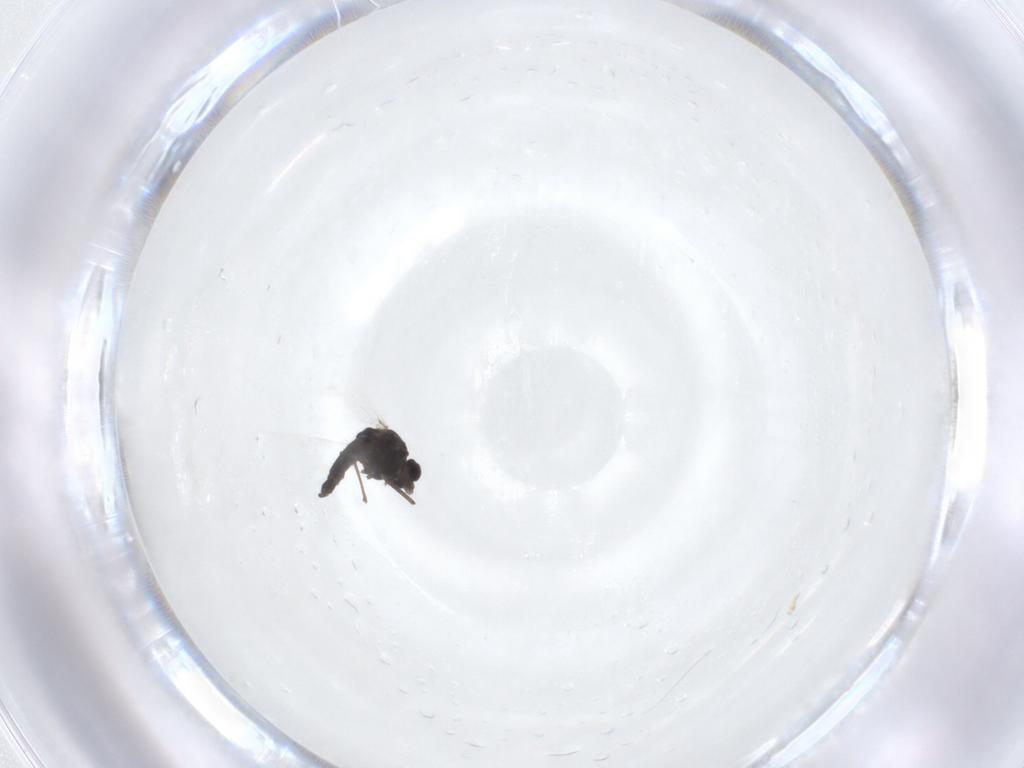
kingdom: Animalia
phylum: Arthropoda
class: Insecta
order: Diptera
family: Chironomidae
